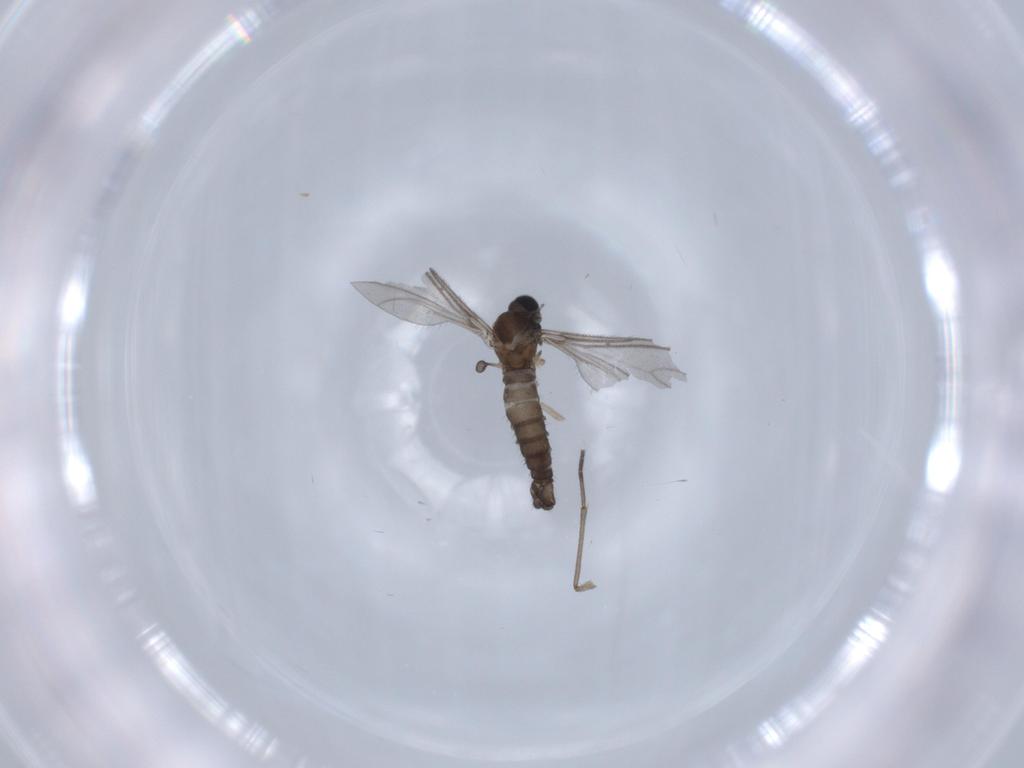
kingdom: Animalia
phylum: Arthropoda
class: Insecta
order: Diptera
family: Sciaridae
